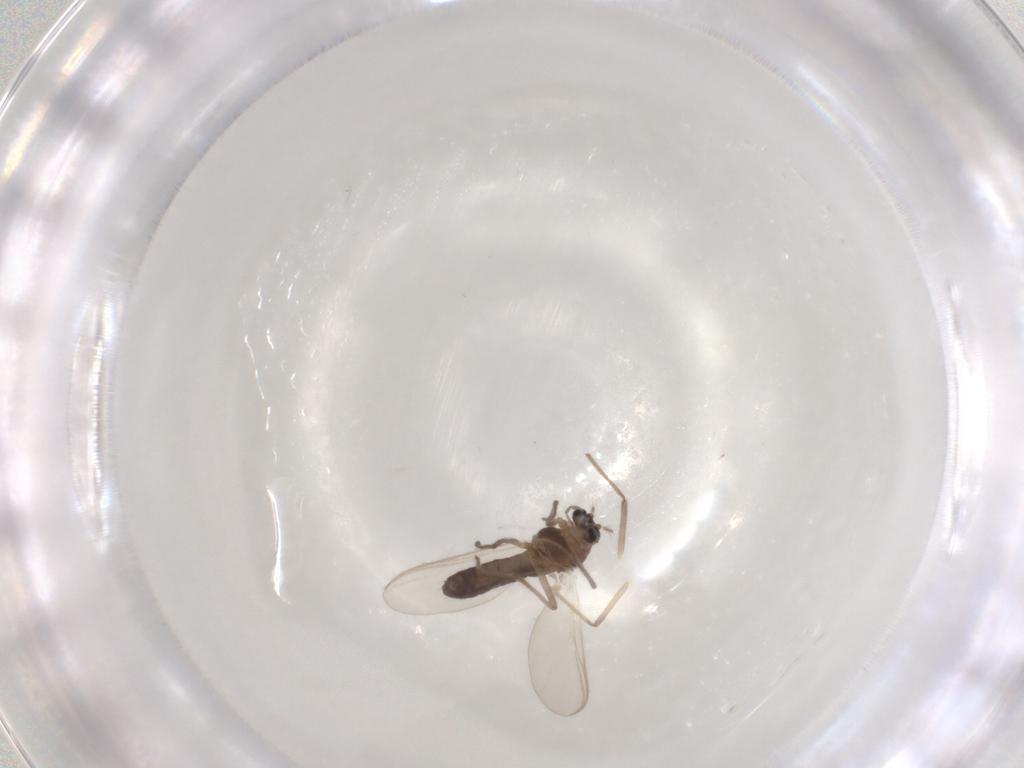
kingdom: Animalia
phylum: Arthropoda
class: Insecta
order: Diptera
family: Chironomidae
